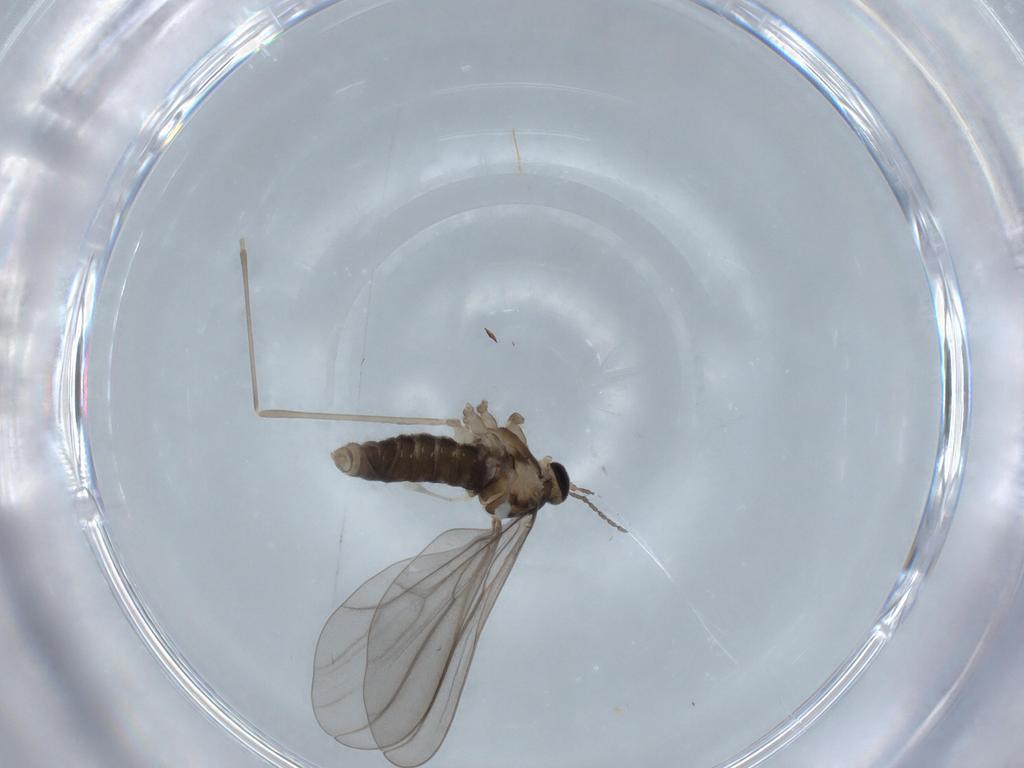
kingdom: Animalia
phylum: Arthropoda
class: Insecta
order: Diptera
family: Cecidomyiidae
